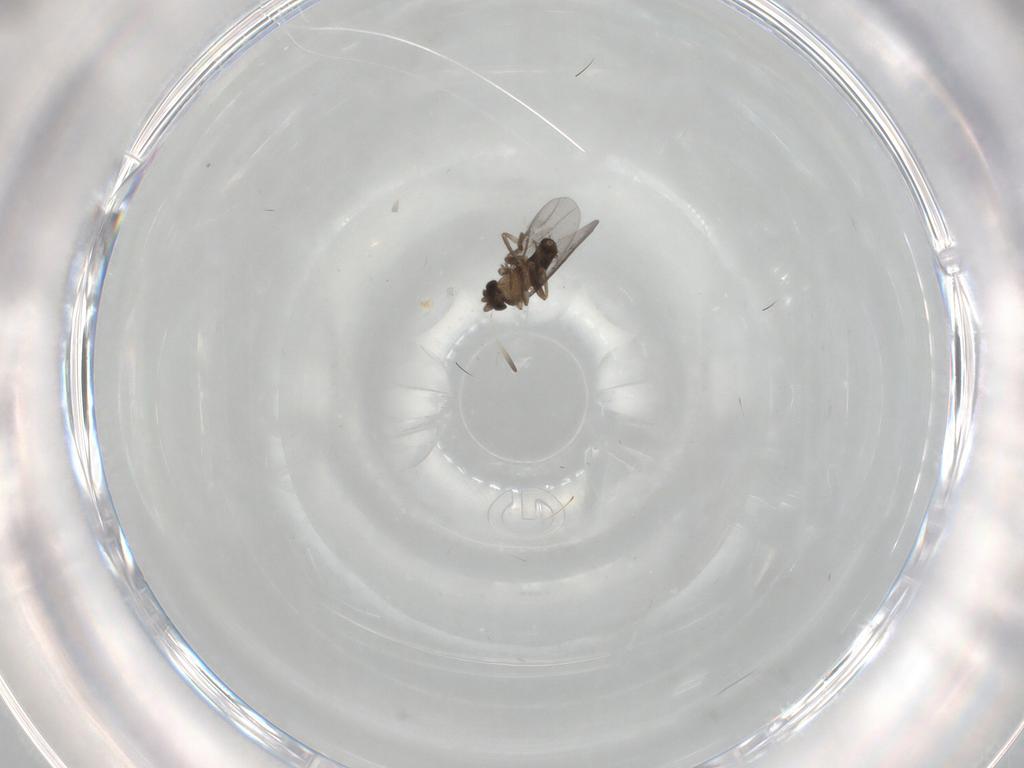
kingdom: Animalia
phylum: Arthropoda
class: Insecta
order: Diptera
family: Phoridae
